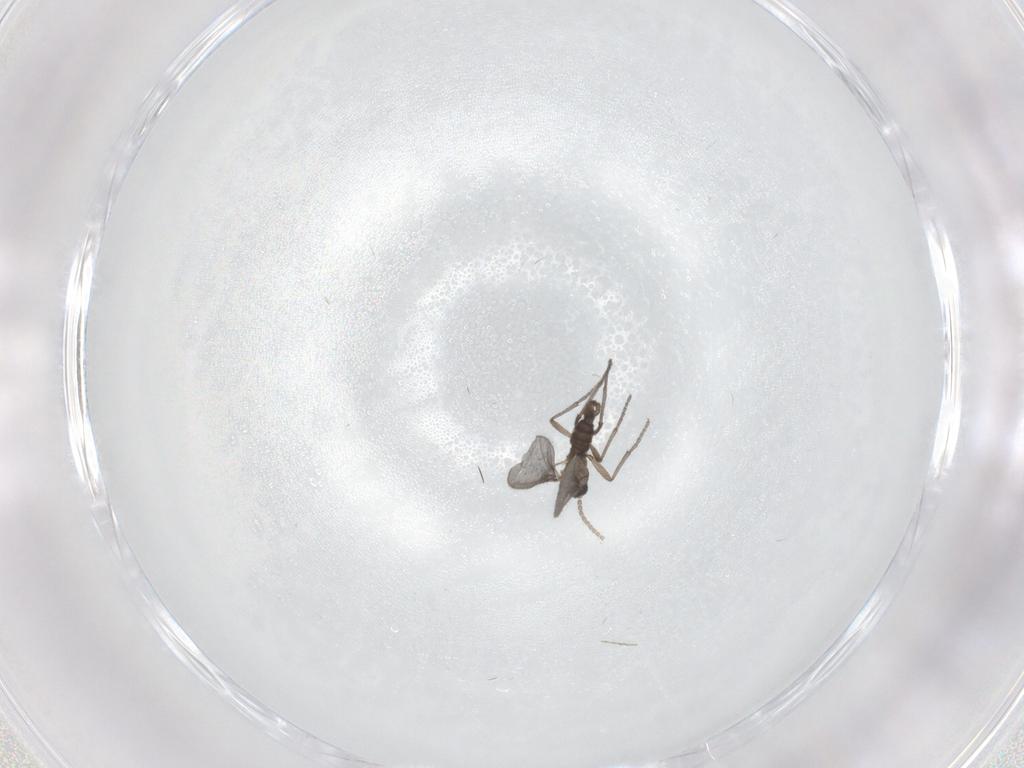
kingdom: Animalia
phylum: Arthropoda
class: Insecta
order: Diptera
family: Sciaridae
